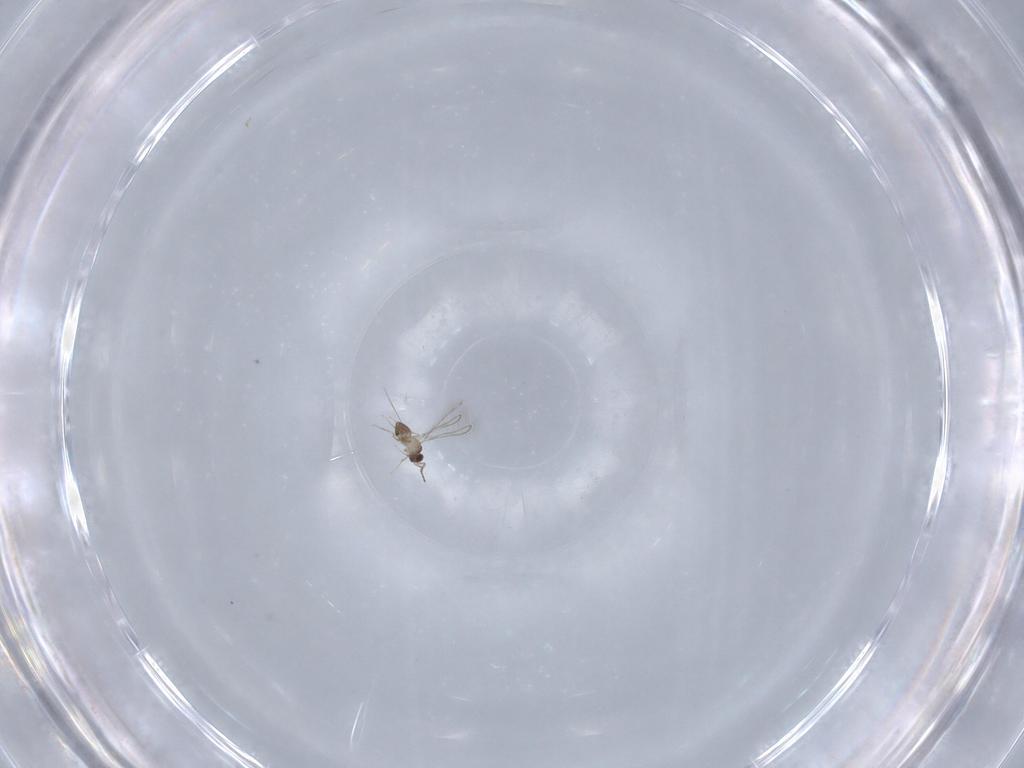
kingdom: Animalia
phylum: Arthropoda
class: Insecta
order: Hymenoptera
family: Mymaridae
